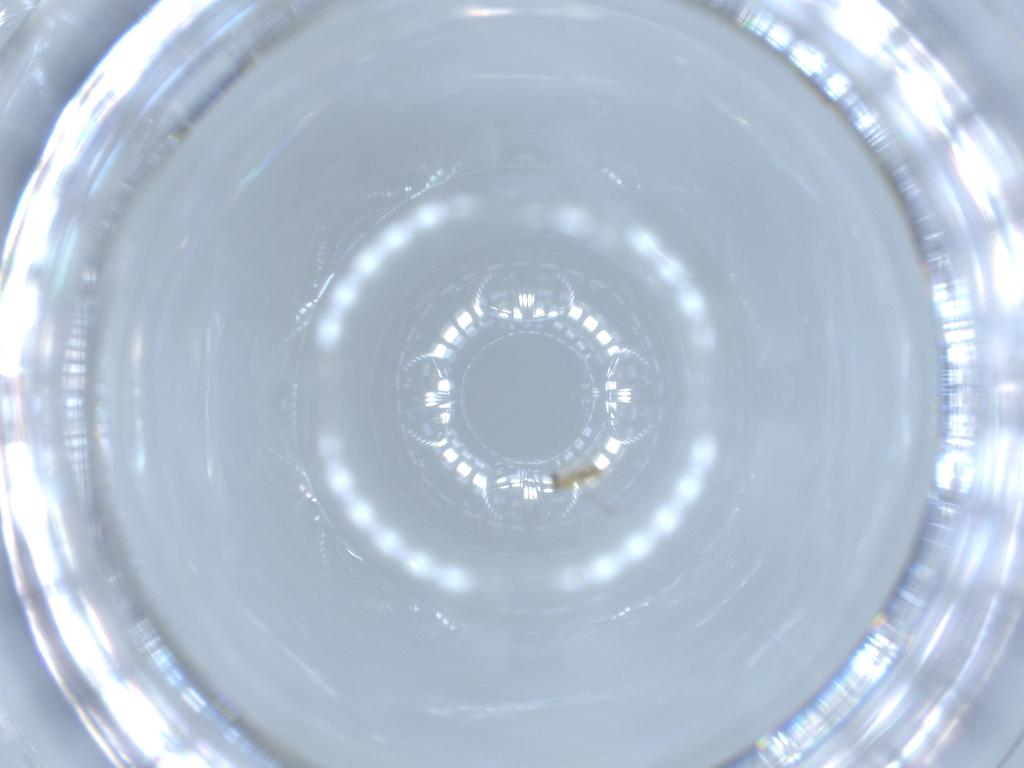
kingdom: Animalia
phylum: Arthropoda
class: Insecta
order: Hymenoptera
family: Mymaridae
